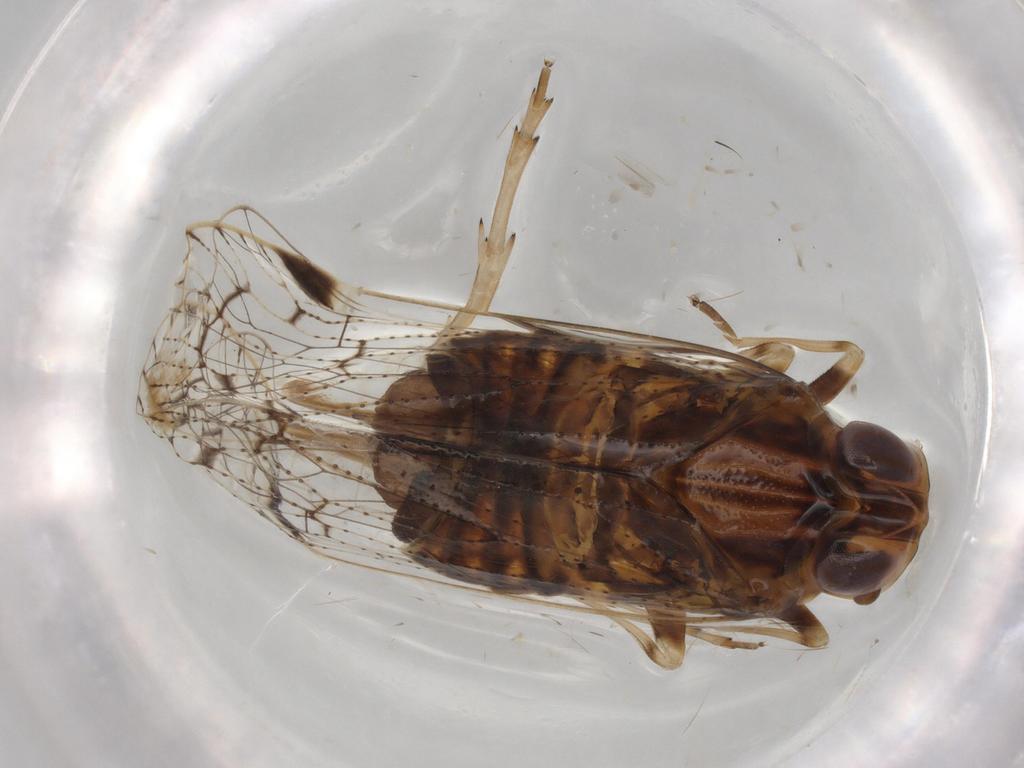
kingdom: Animalia
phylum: Arthropoda
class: Insecta
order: Hemiptera
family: Cixiidae
